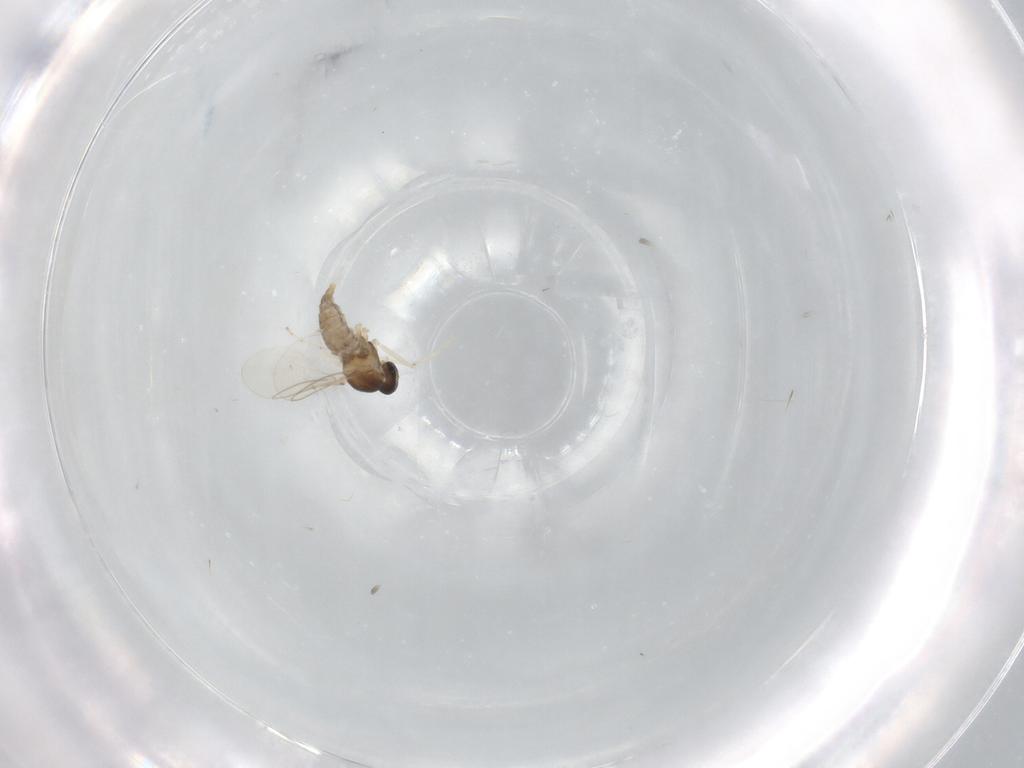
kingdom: Animalia
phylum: Arthropoda
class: Insecta
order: Diptera
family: Cecidomyiidae
